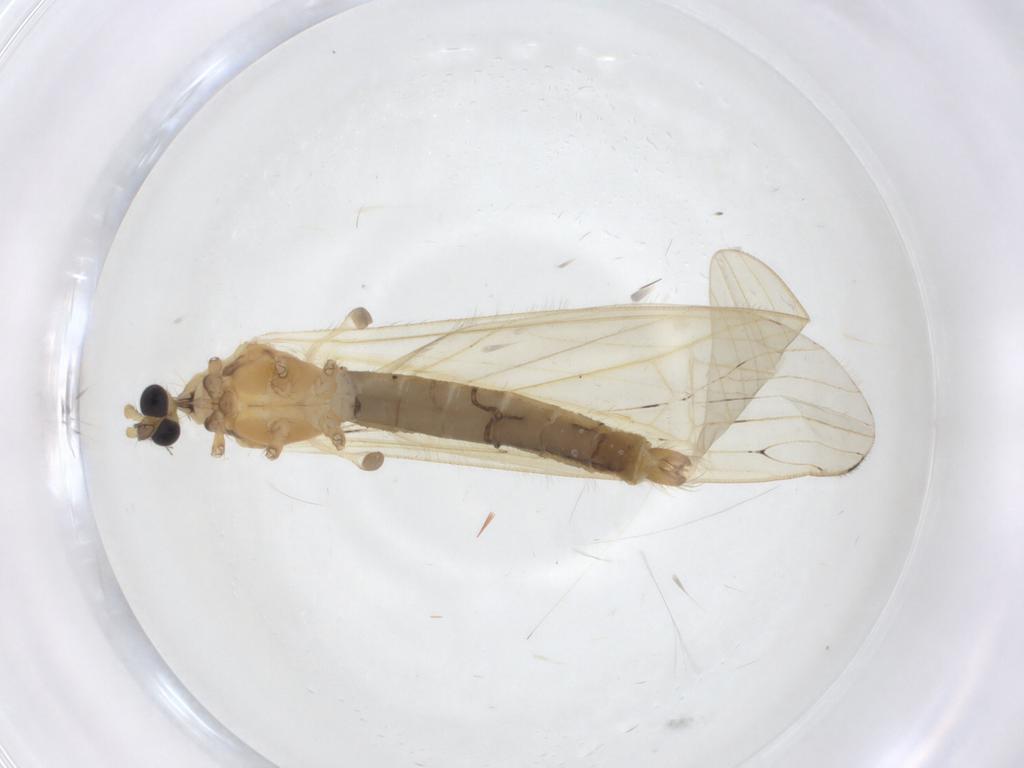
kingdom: Animalia
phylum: Arthropoda
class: Insecta
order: Diptera
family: Limoniidae
